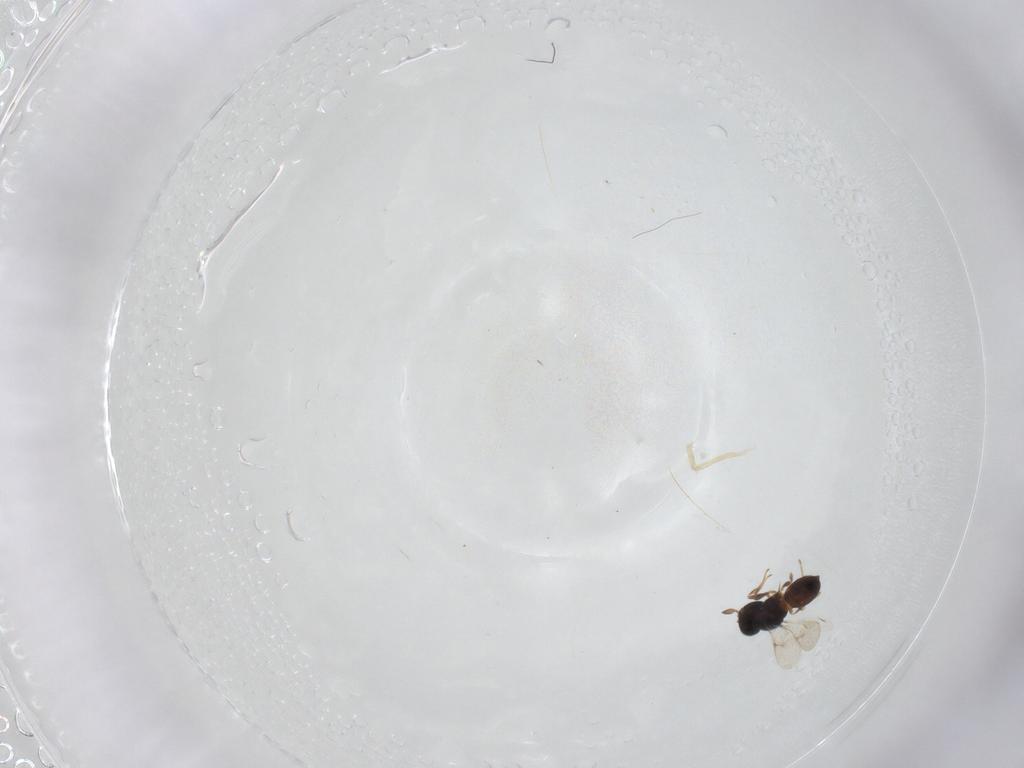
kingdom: Animalia
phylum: Arthropoda
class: Insecta
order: Hymenoptera
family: Scelionidae
